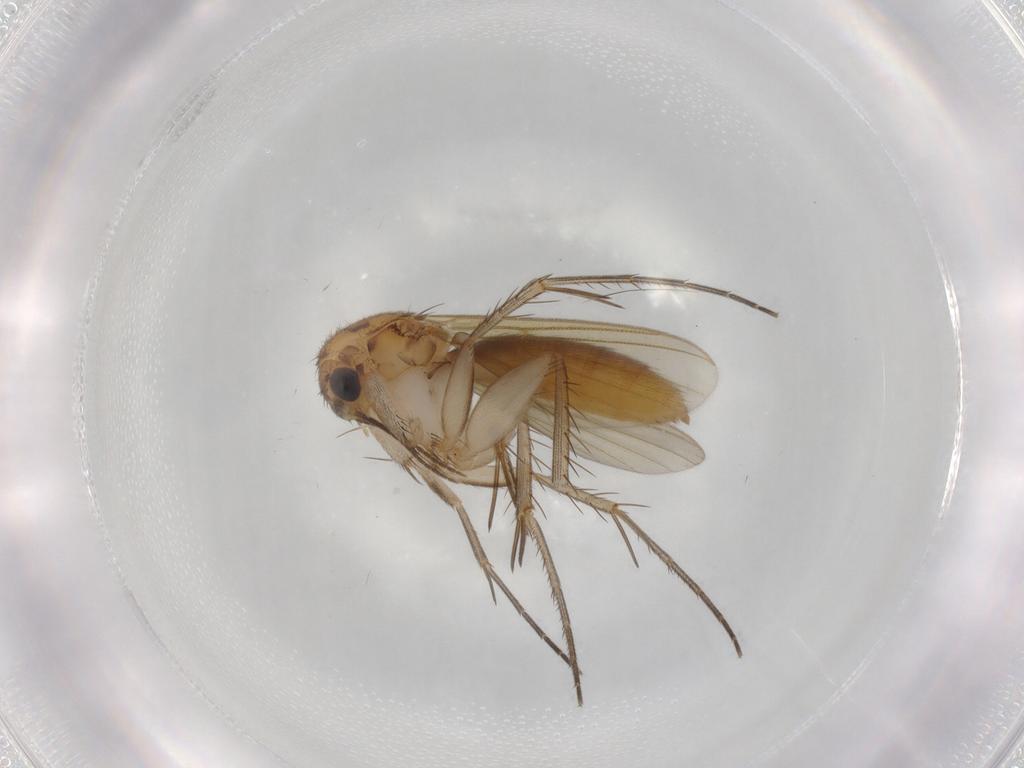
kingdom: Animalia
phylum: Arthropoda
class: Insecta
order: Diptera
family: Mycetophilidae
